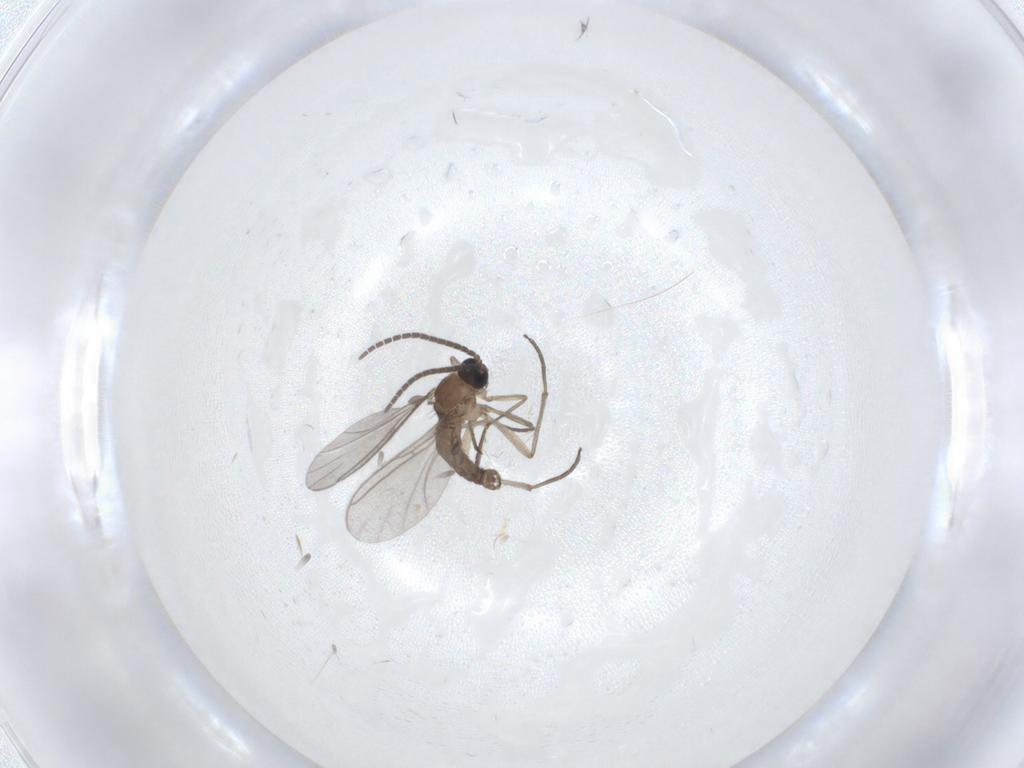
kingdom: Animalia
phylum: Arthropoda
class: Insecta
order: Diptera
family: Sciaridae
